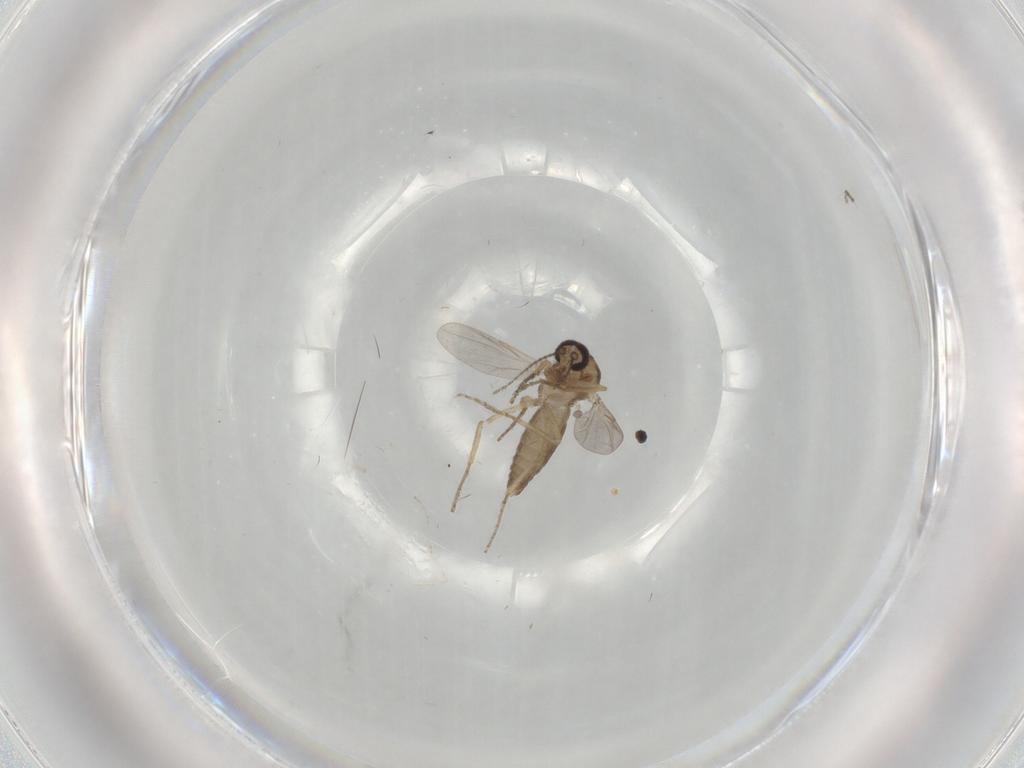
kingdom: Animalia
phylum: Arthropoda
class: Insecta
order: Diptera
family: Ceratopogonidae
